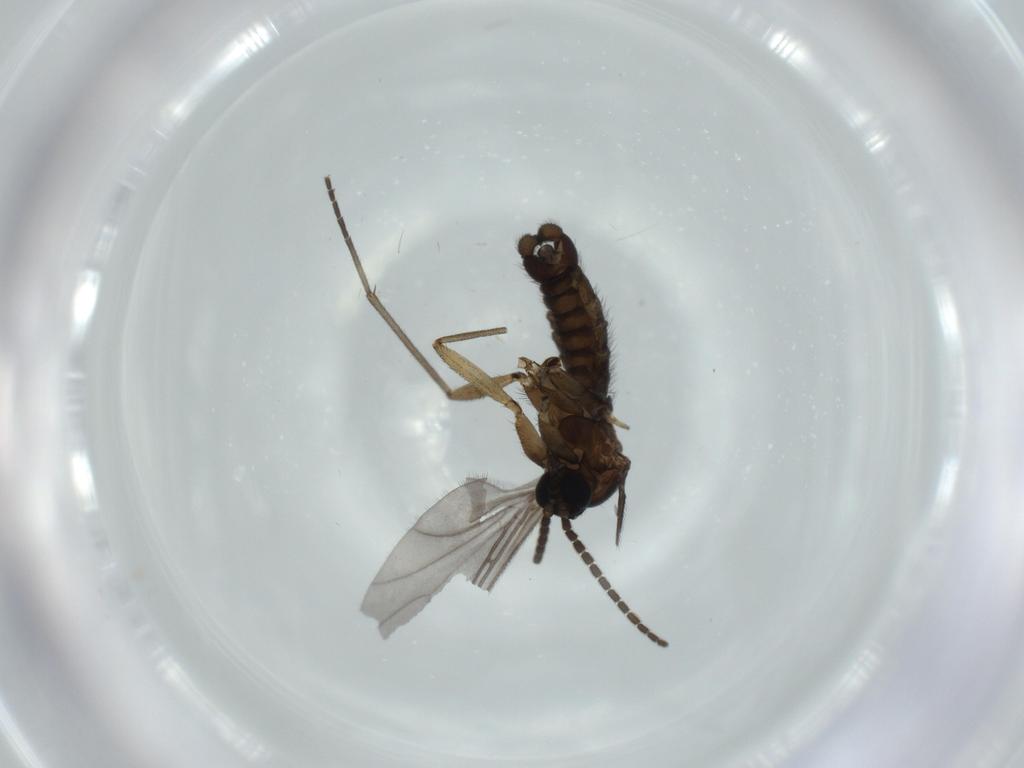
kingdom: Animalia
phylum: Arthropoda
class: Insecta
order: Diptera
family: Sciaridae
